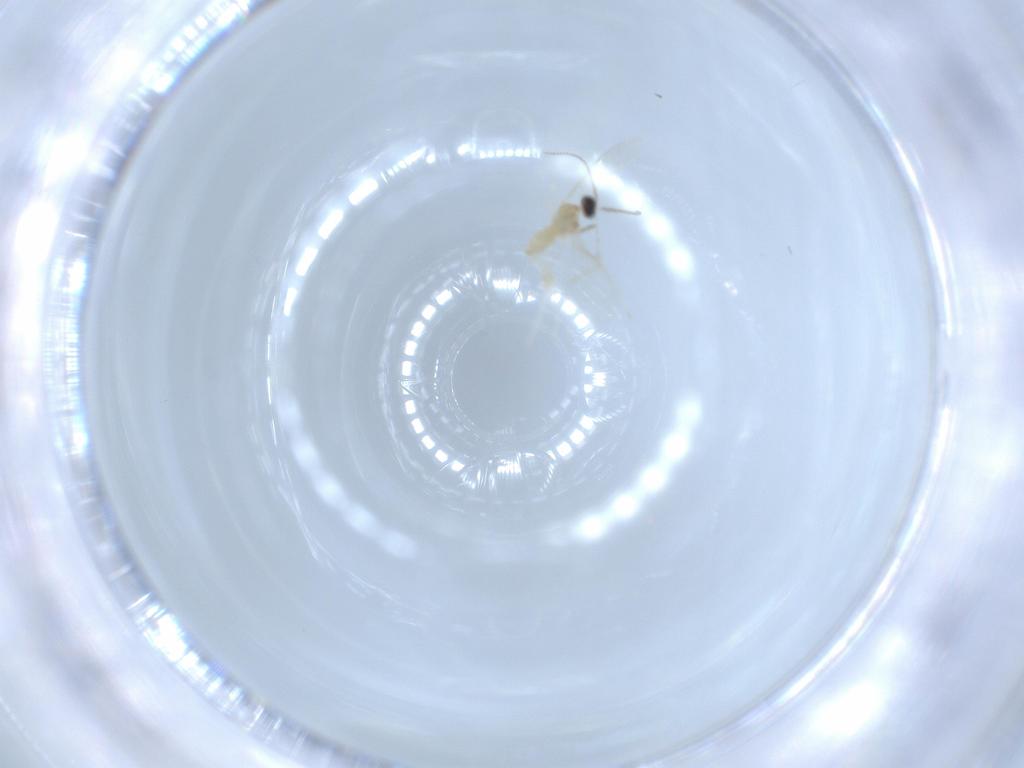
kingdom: Animalia
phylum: Arthropoda
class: Insecta
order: Diptera
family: Cecidomyiidae
